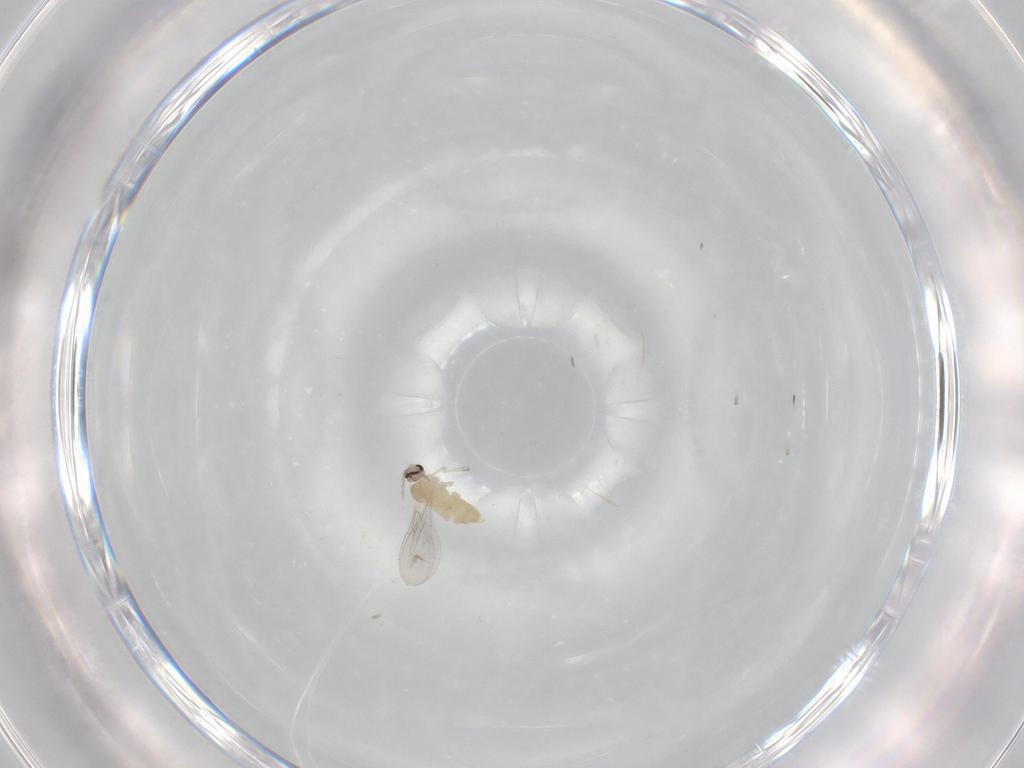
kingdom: Animalia
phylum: Arthropoda
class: Insecta
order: Diptera
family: Cecidomyiidae
